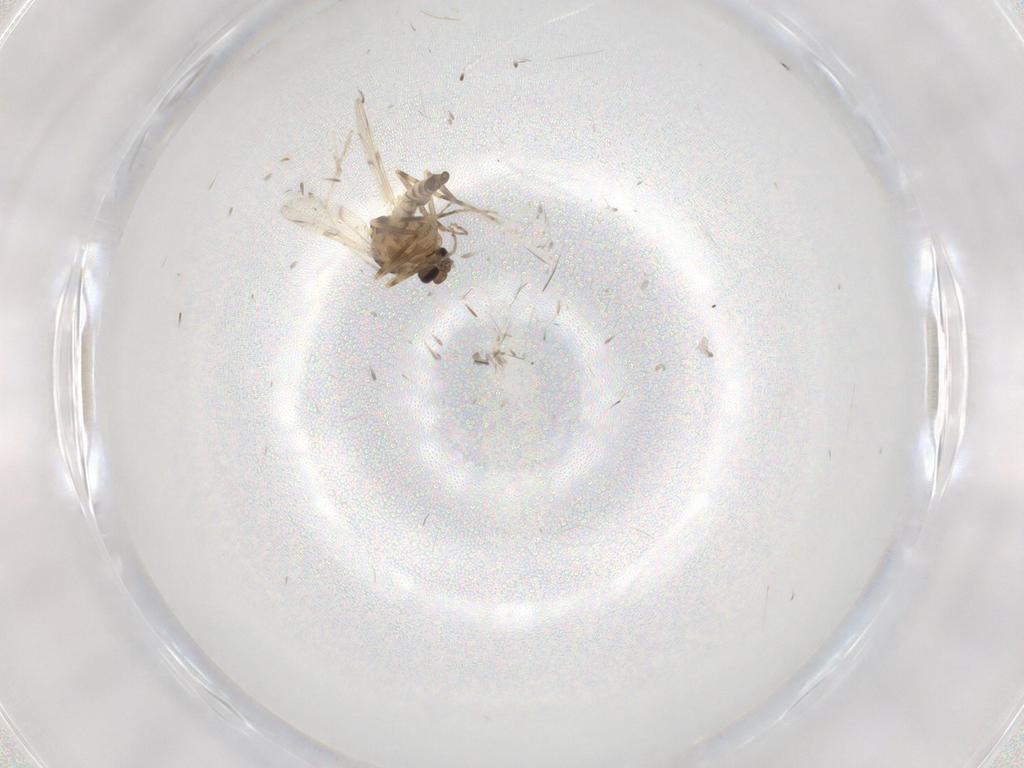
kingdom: Animalia
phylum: Arthropoda
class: Insecta
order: Diptera
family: Ceratopogonidae
